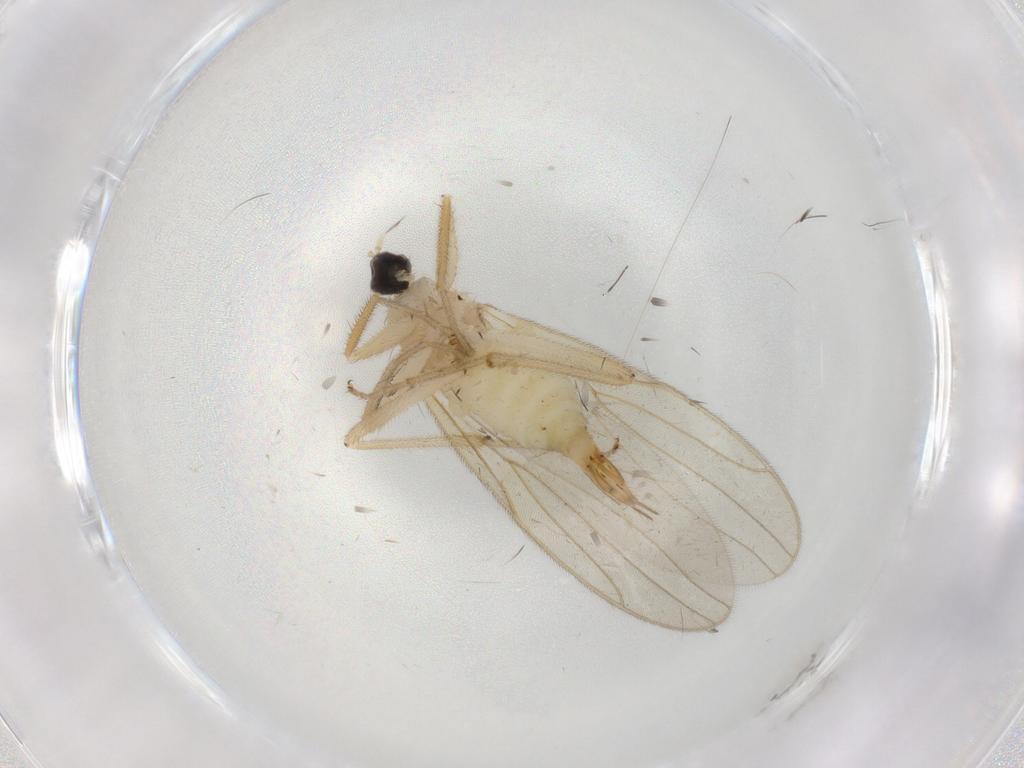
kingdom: Animalia
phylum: Arthropoda
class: Insecta
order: Diptera
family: Hybotidae
